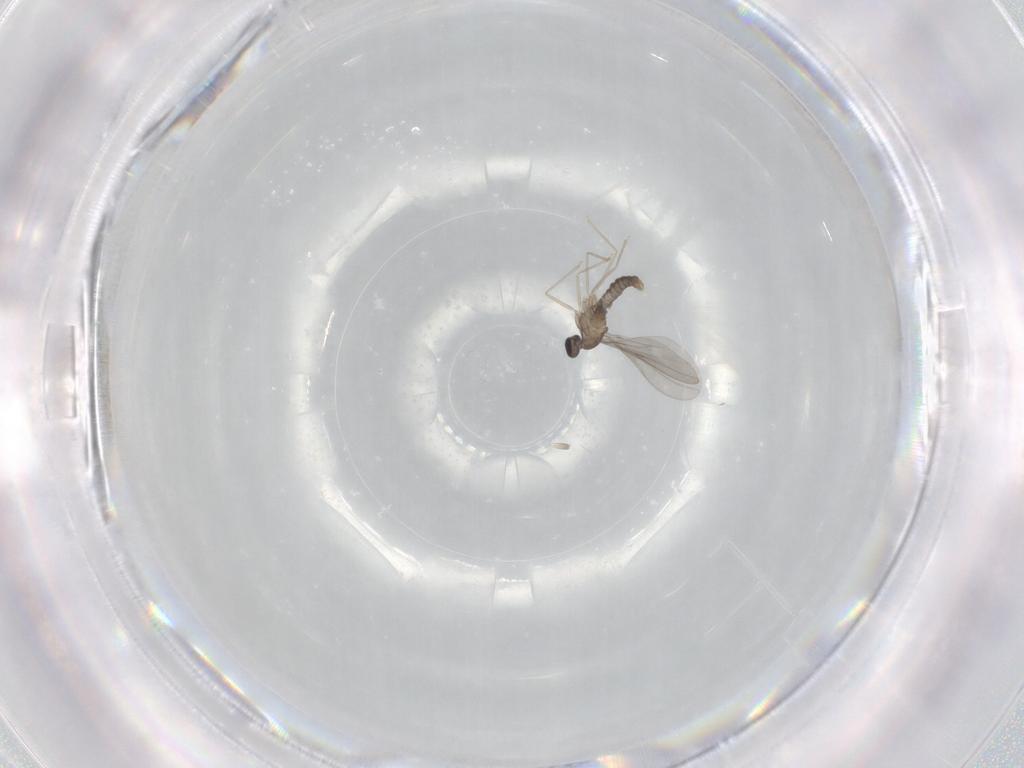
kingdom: Animalia
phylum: Arthropoda
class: Insecta
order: Diptera
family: Cecidomyiidae
